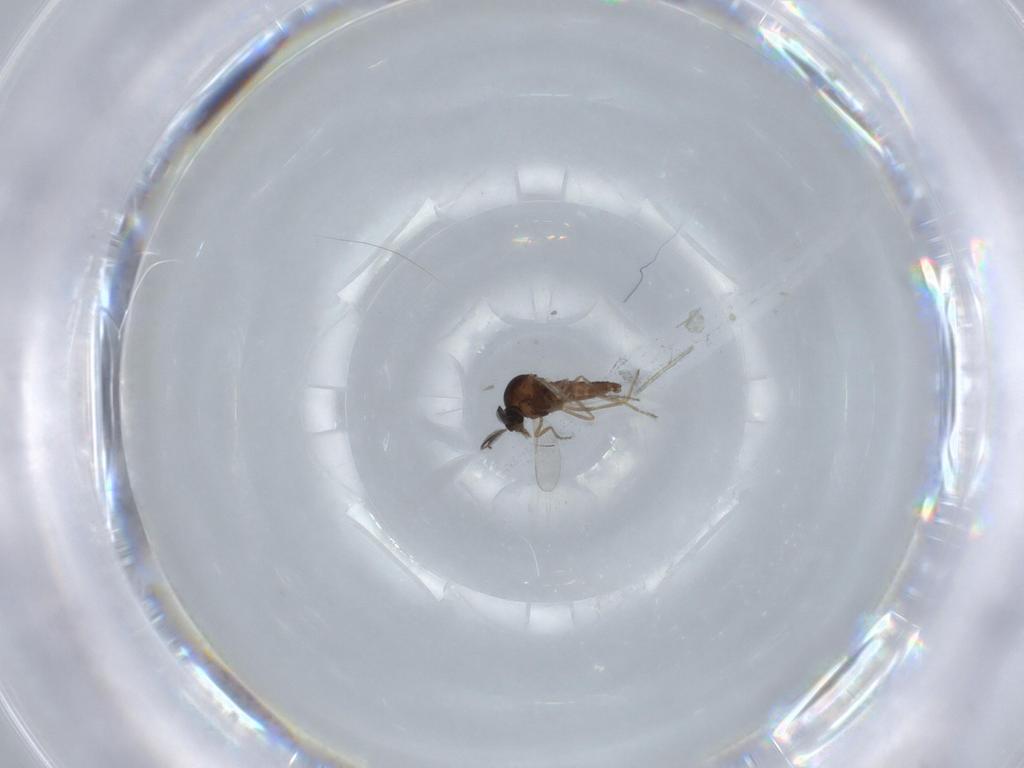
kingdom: Animalia
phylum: Arthropoda
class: Insecta
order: Diptera
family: Ceratopogonidae
